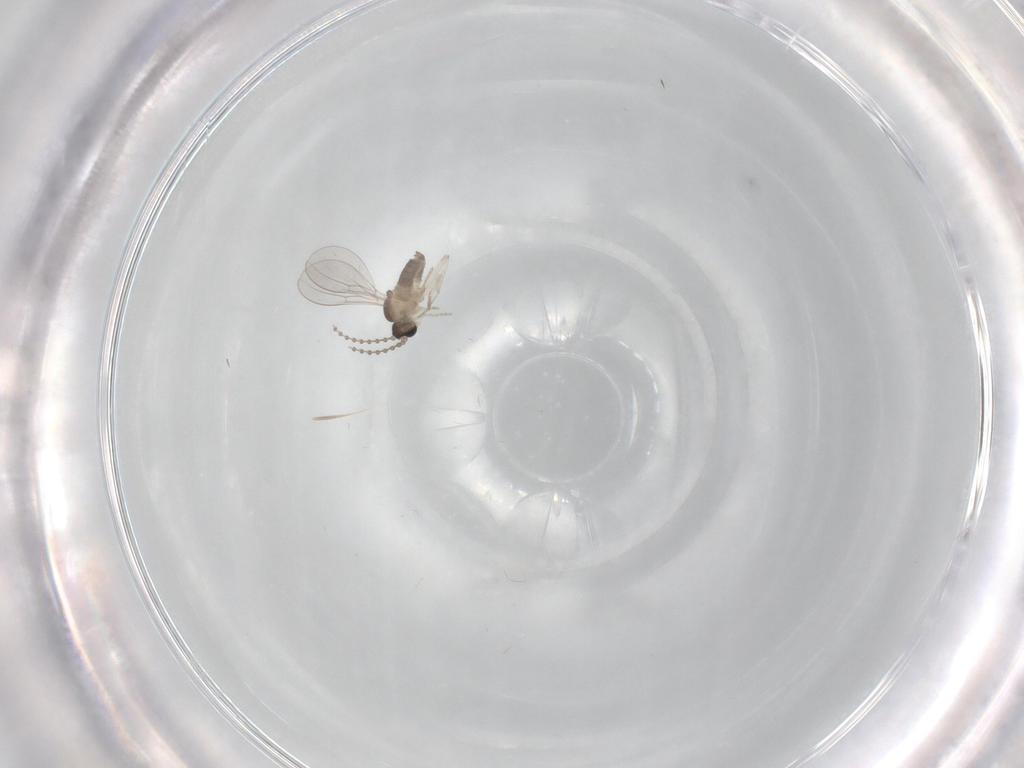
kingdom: Animalia
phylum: Arthropoda
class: Insecta
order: Diptera
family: Cecidomyiidae
